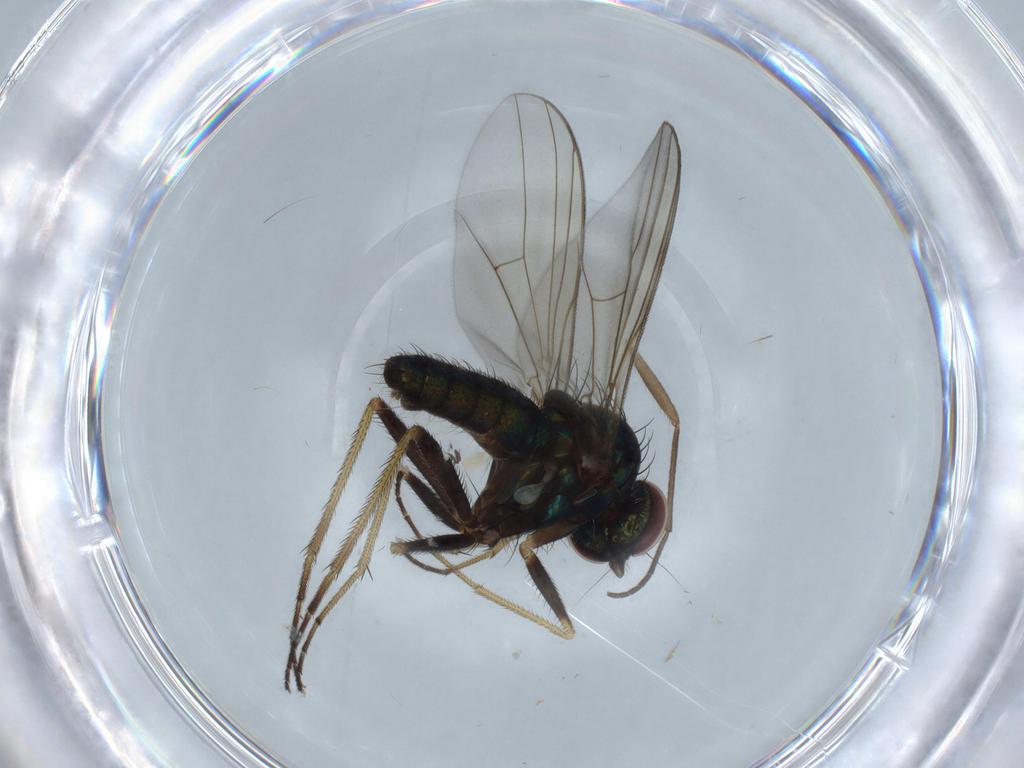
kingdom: Animalia
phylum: Arthropoda
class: Insecta
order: Diptera
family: Dolichopodidae
